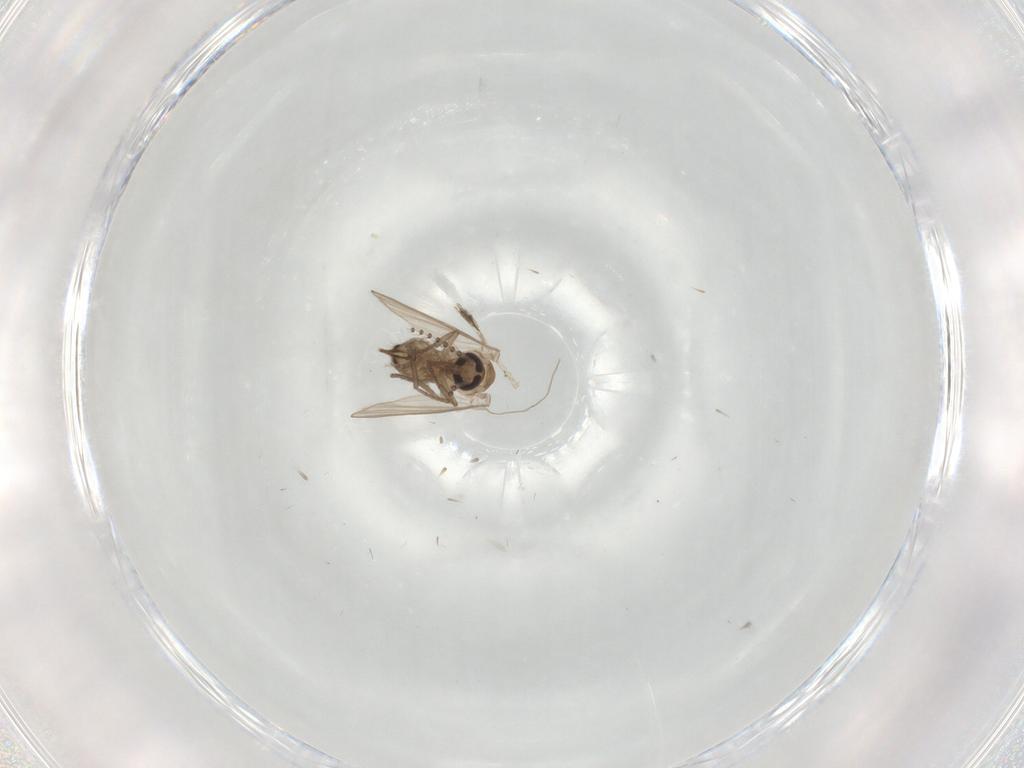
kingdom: Animalia
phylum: Arthropoda
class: Insecta
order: Diptera
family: Psychodidae
